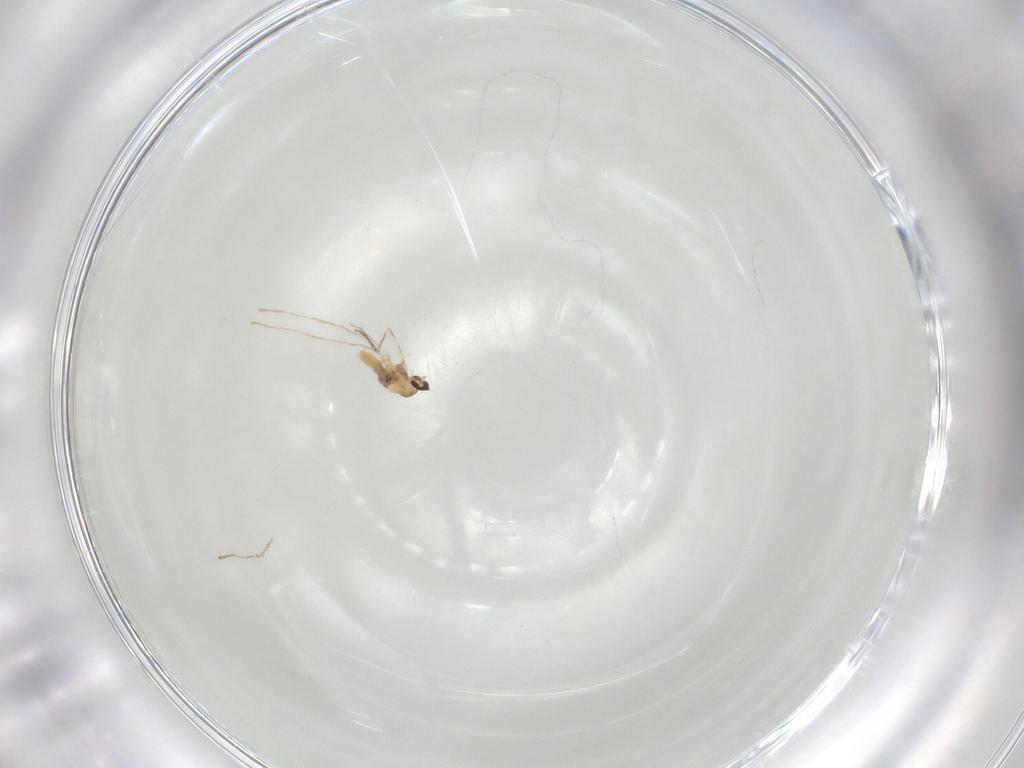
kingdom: Animalia
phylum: Arthropoda
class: Insecta
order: Diptera
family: Cecidomyiidae
